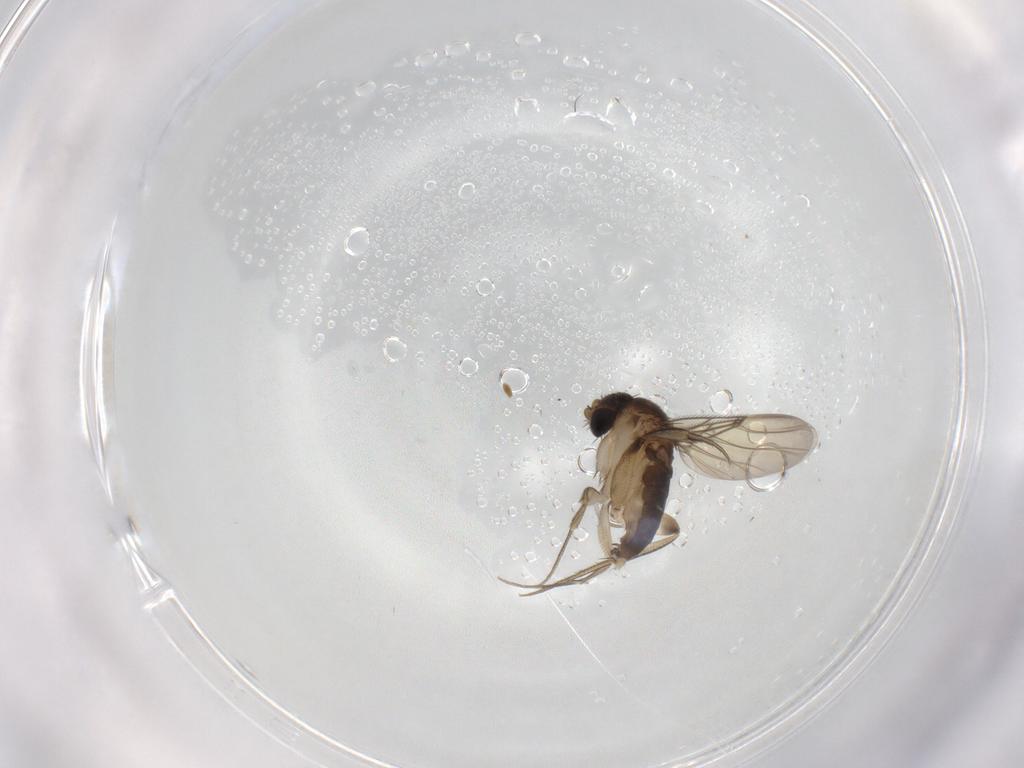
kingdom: Animalia
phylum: Arthropoda
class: Insecta
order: Diptera
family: Phoridae
